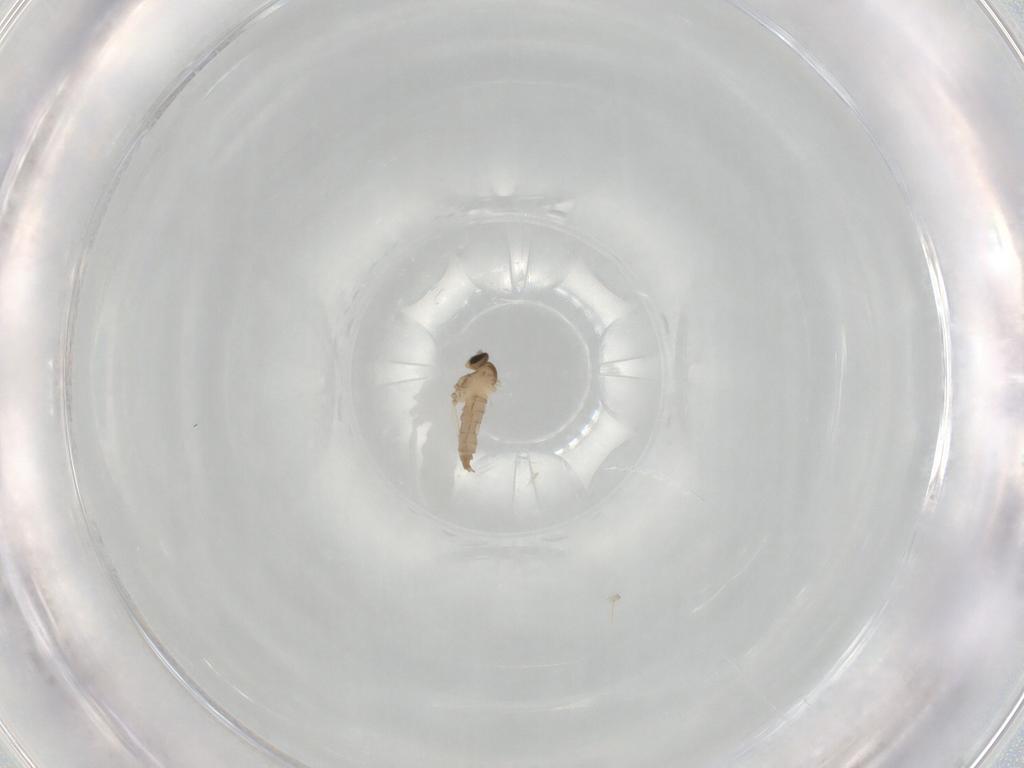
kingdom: Animalia
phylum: Arthropoda
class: Insecta
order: Diptera
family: Cecidomyiidae
